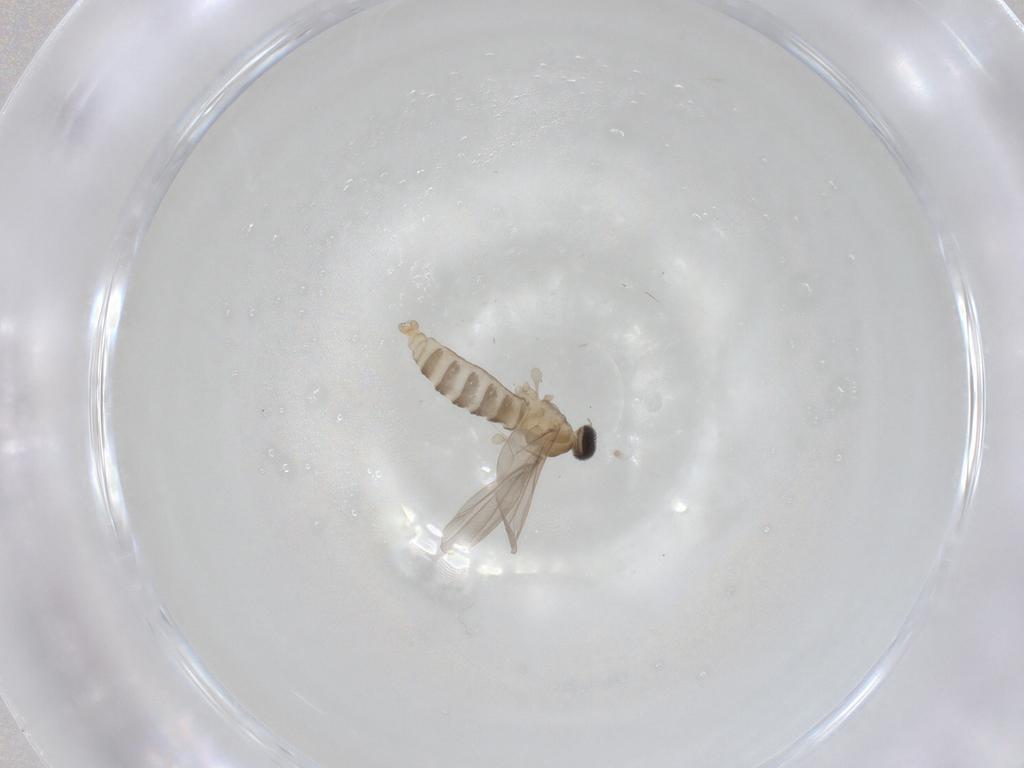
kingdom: Animalia
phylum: Arthropoda
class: Insecta
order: Diptera
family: Cecidomyiidae
